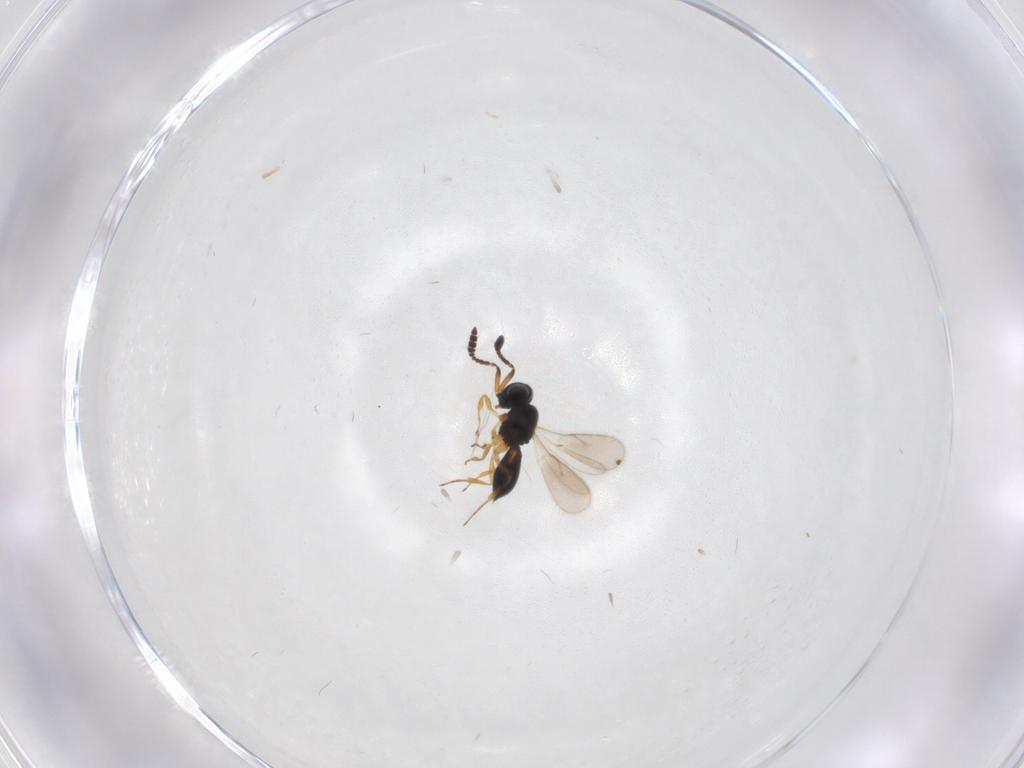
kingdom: Animalia
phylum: Arthropoda
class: Insecta
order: Hymenoptera
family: Scelionidae
